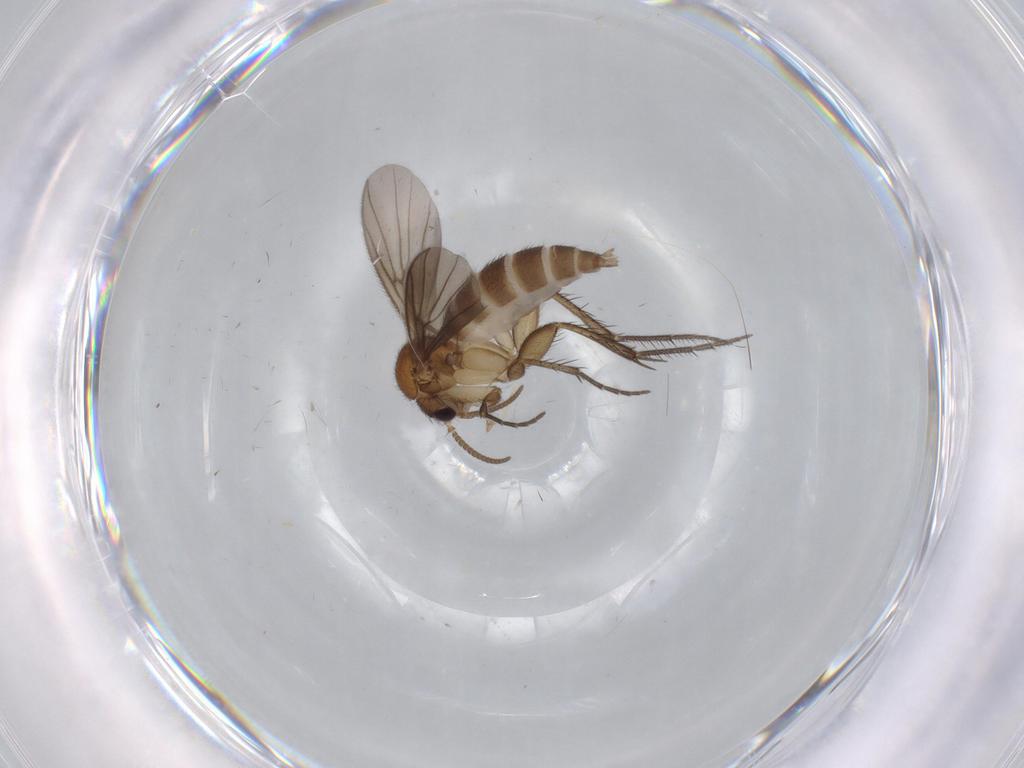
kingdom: Animalia
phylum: Arthropoda
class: Insecta
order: Diptera
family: Mycetophilidae
